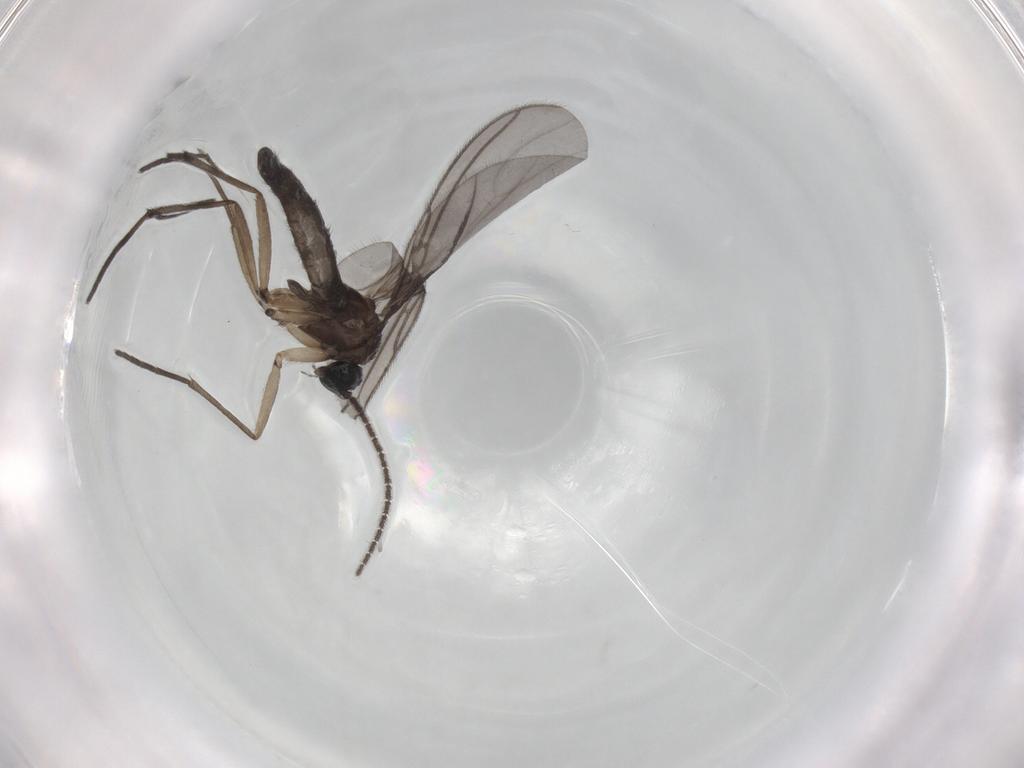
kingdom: Animalia
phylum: Arthropoda
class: Insecta
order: Diptera
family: Sciaridae
